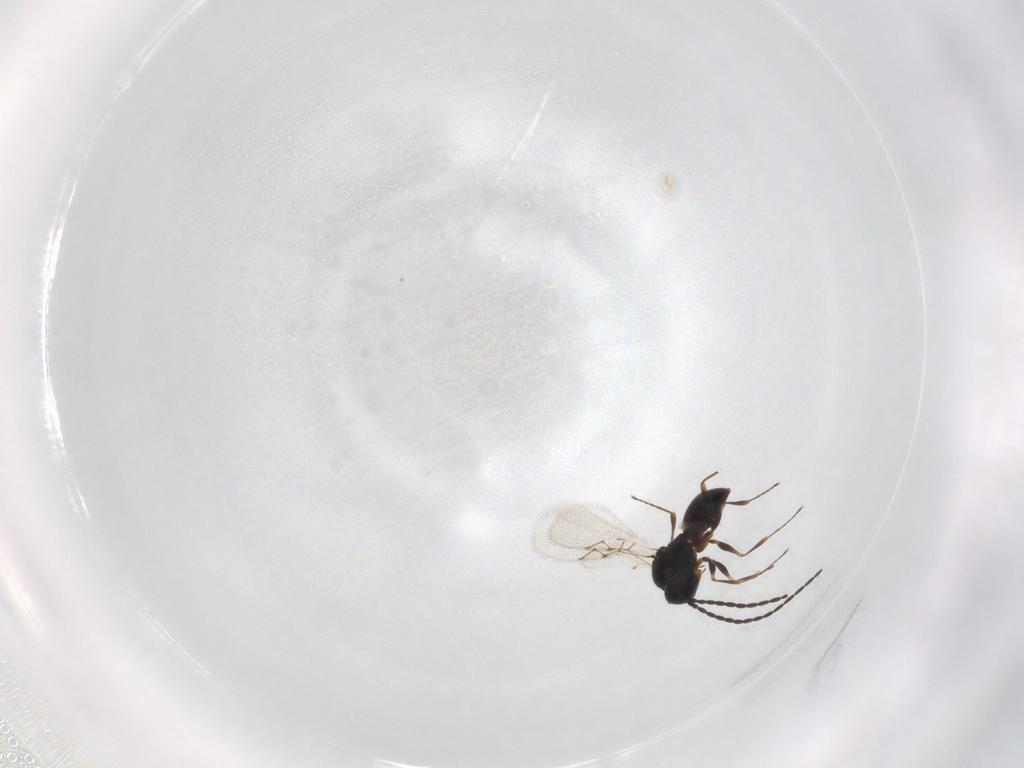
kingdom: Animalia
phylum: Arthropoda
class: Insecta
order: Hymenoptera
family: Figitidae
